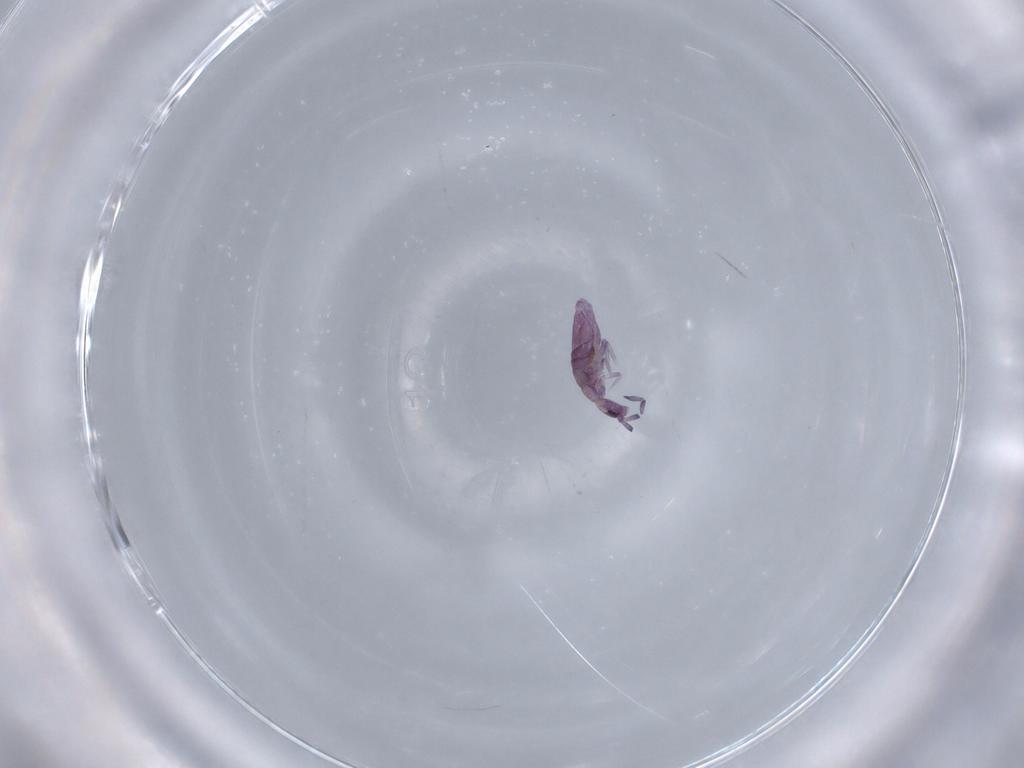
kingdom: Animalia
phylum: Arthropoda
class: Collembola
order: Entomobryomorpha
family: Entomobryidae
